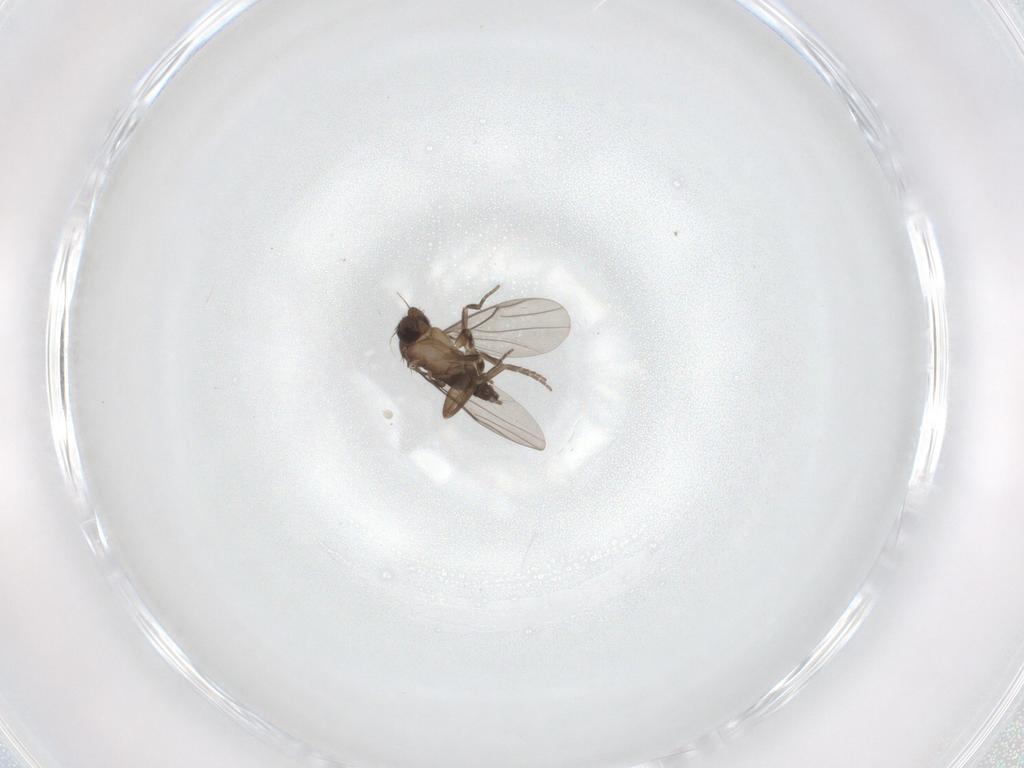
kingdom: Animalia
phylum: Arthropoda
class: Insecta
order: Diptera
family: Phoridae
